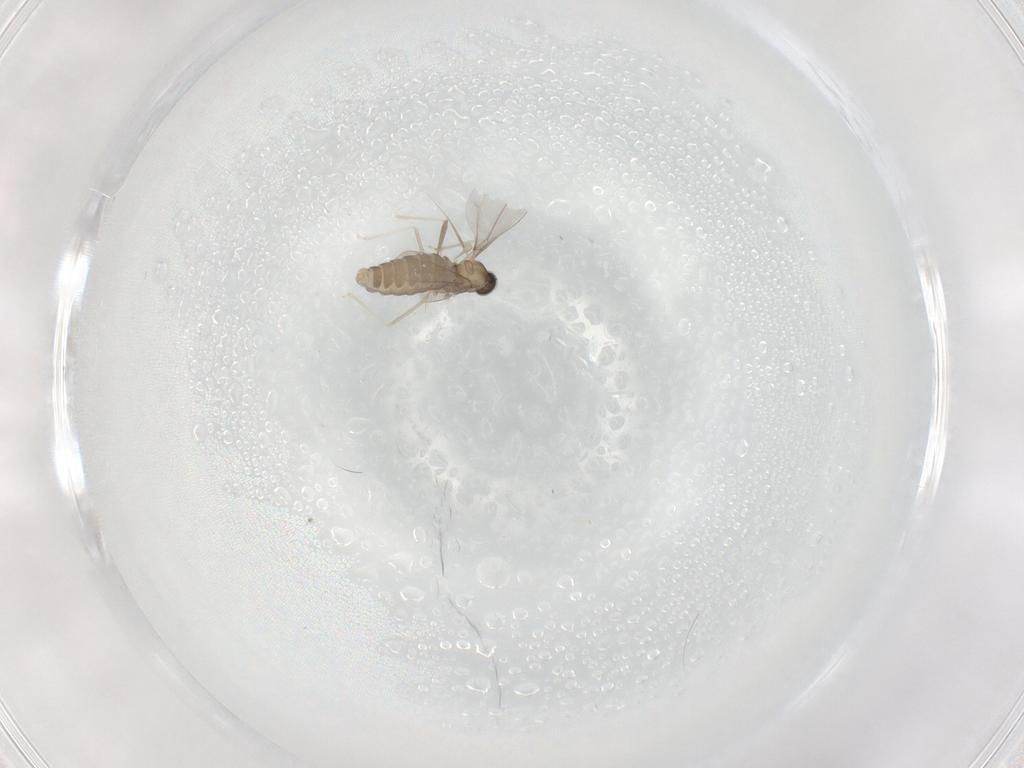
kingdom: Animalia
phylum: Arthropoda
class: Insecta
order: Diptera
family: Cecidomyiidae
